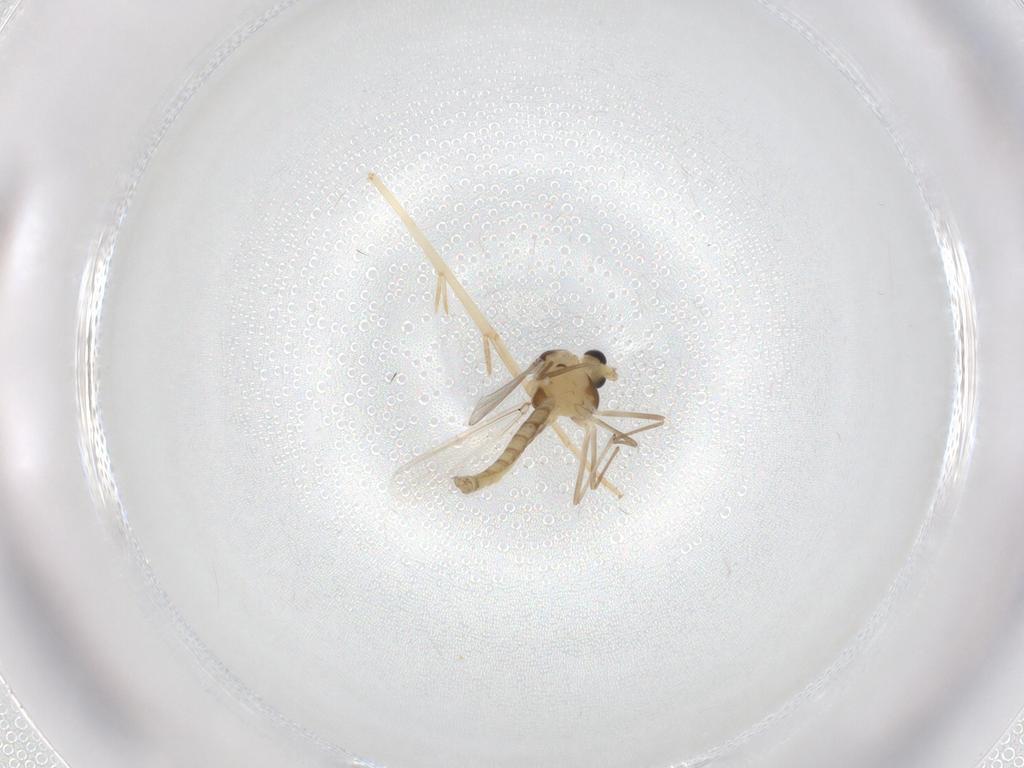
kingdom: Animalia
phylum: Arthropoda
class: Insecta
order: Diptera
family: Chironomidae
